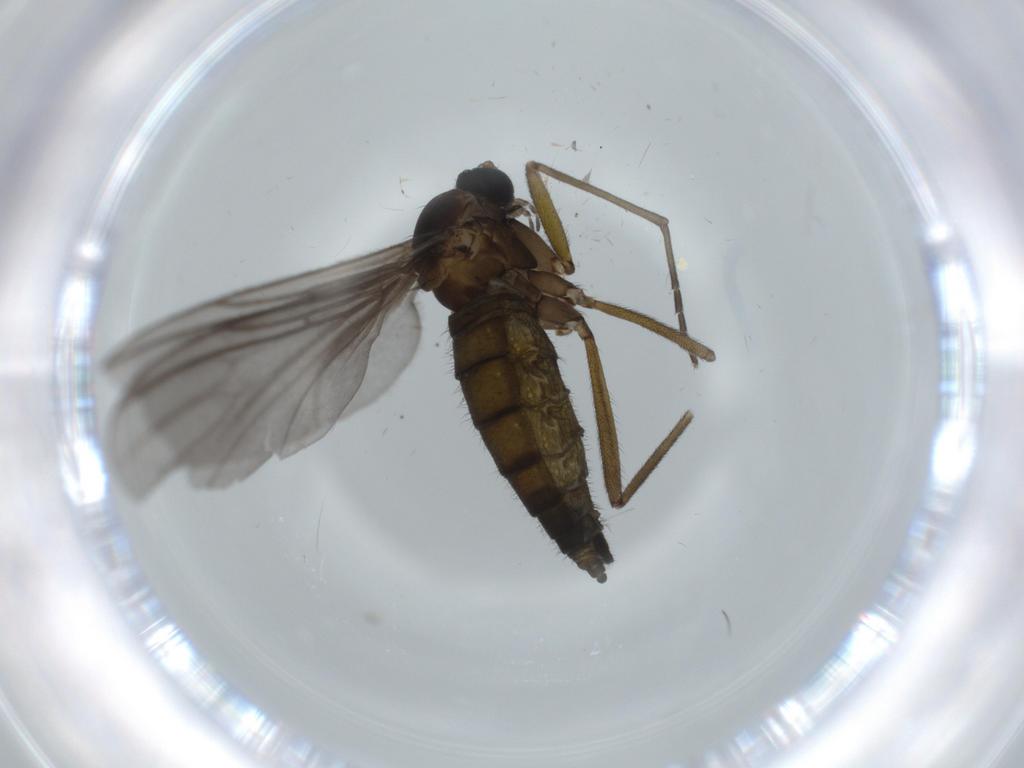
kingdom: Animalia
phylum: Arthropoda
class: Insecta
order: Diptera
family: Sciaridae
